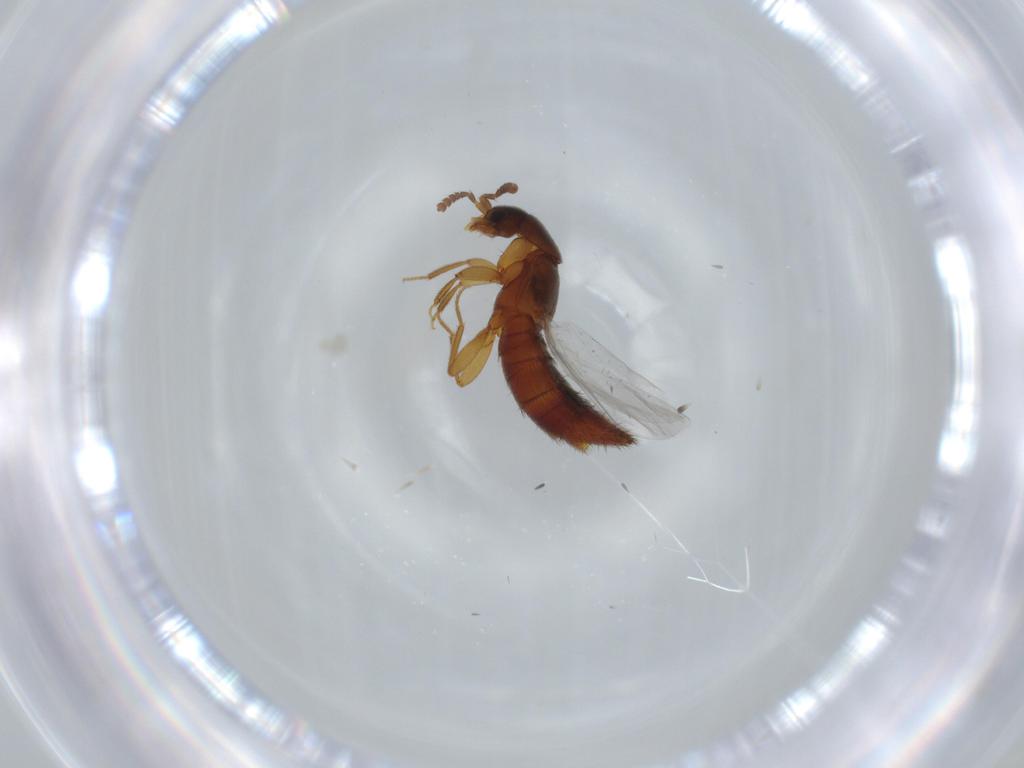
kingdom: Animalia
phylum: Arthropoda
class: Insecta
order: Coleoptera
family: Staphylinidae
